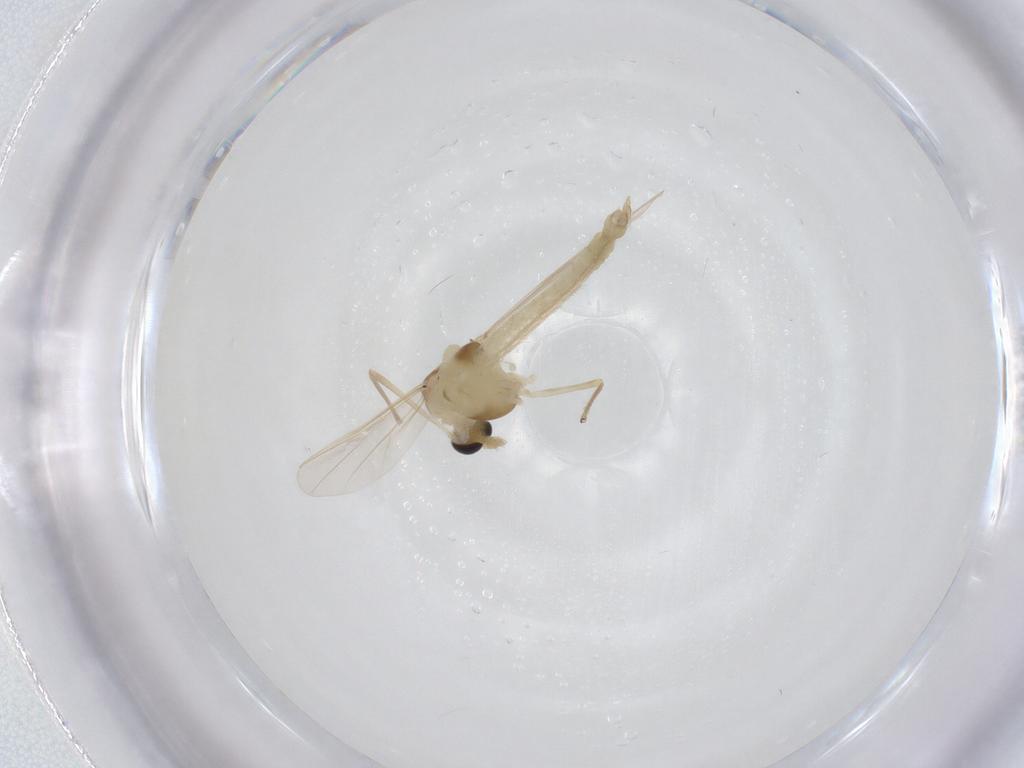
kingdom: Animalia
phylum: Arthropoda
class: Insecta
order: Diptera
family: Chironomidae
